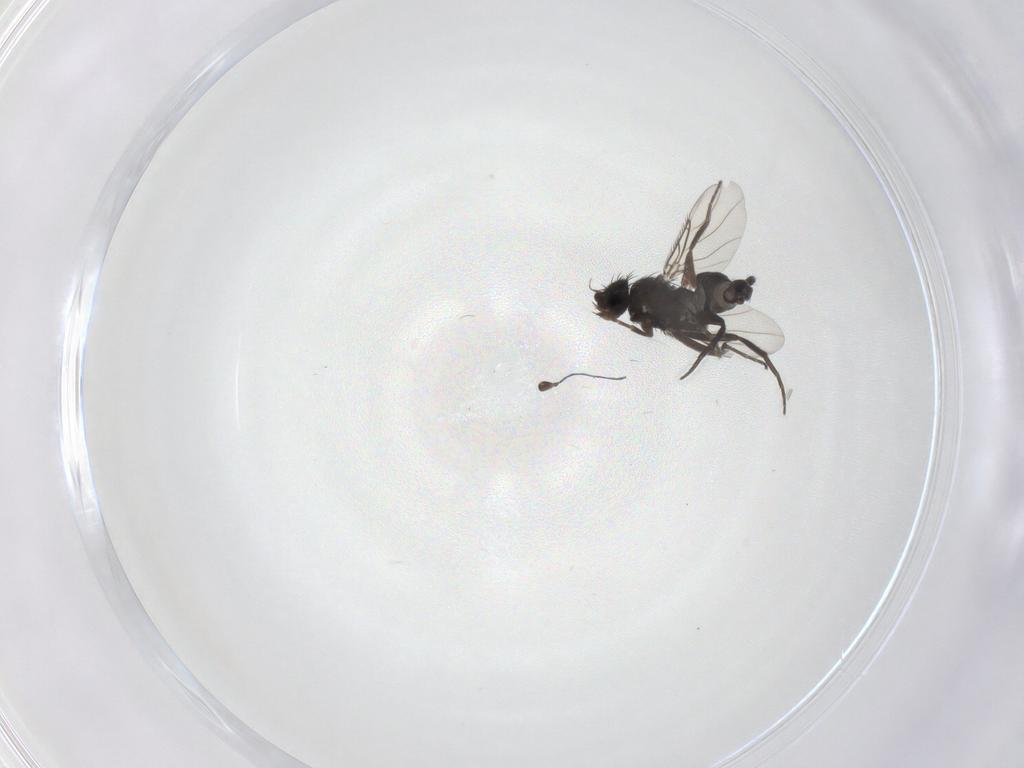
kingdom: Animalia
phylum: Arthropoda
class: Insecta
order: Diptera
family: Phoridae
